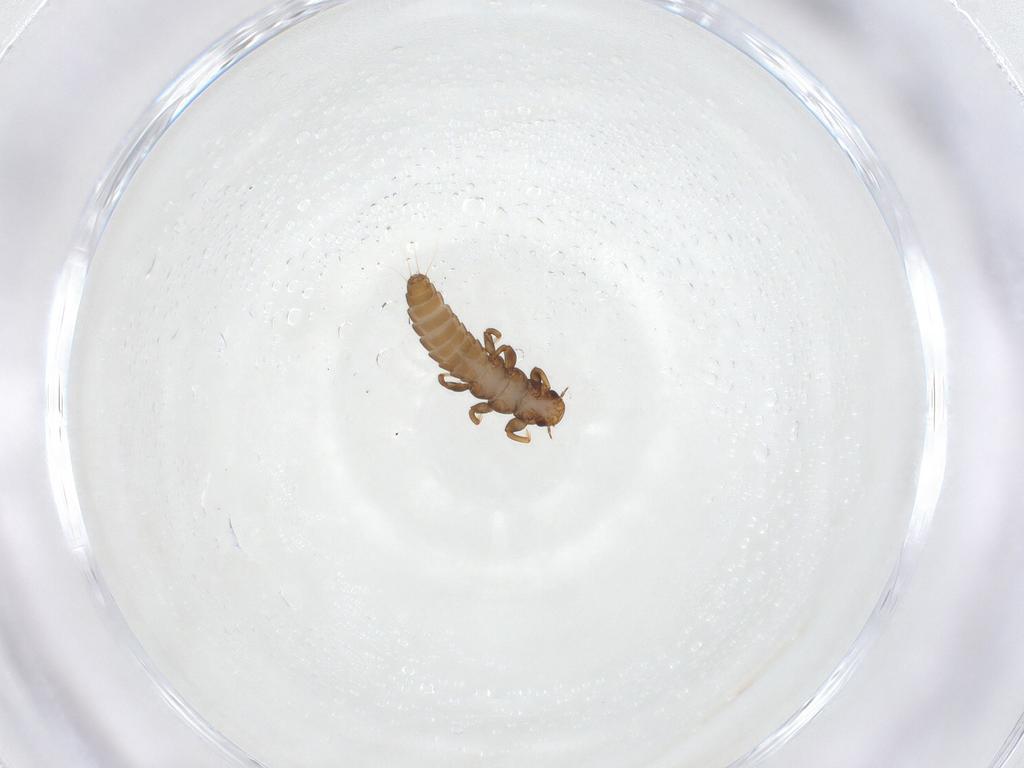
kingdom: Animalia
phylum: Arthropoda
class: Insecta
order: Coleoptera
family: Meloidae
